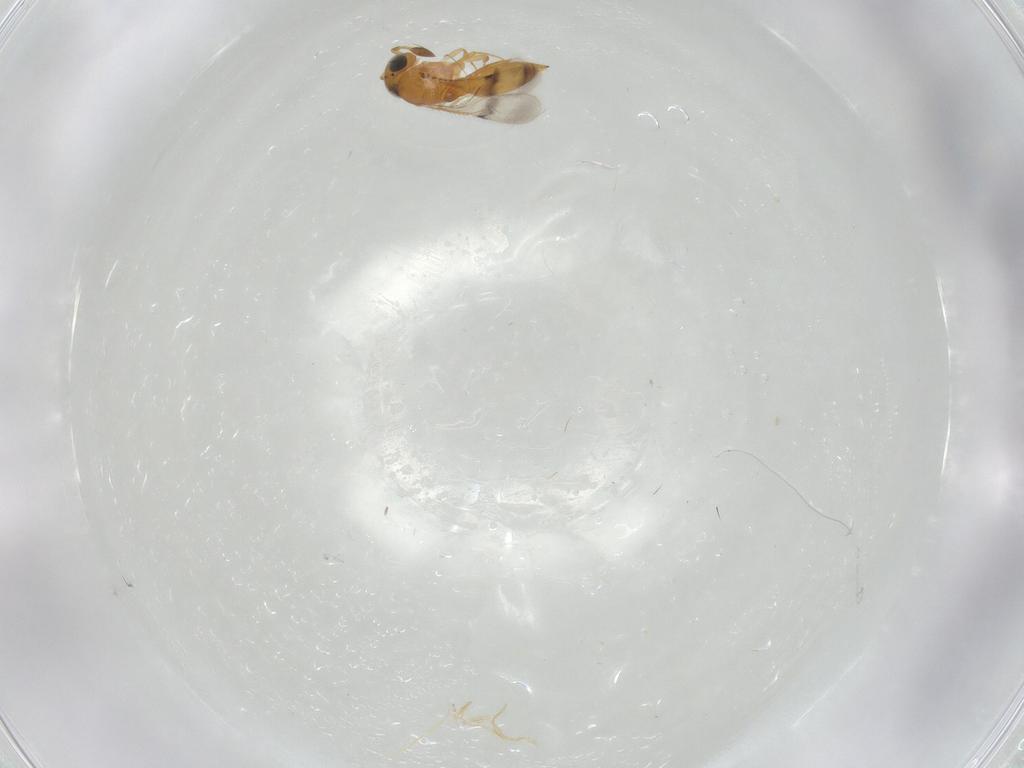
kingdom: Animalia
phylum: Arthropoda
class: Insecta
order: Hymenoptera
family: Scelionidae
